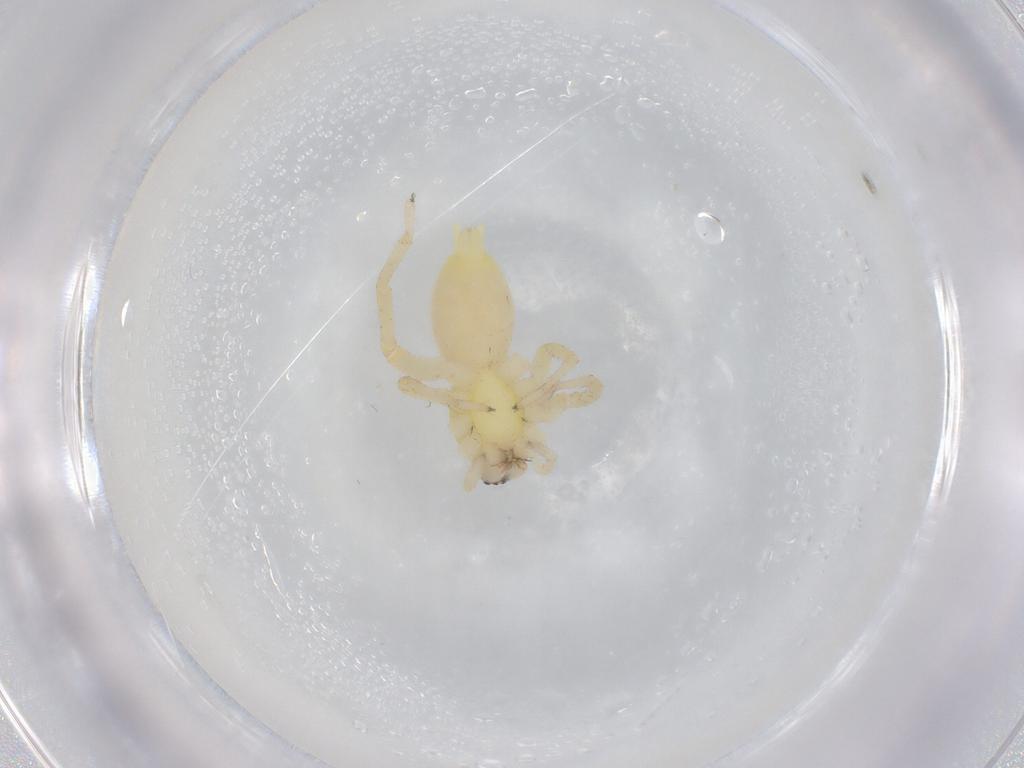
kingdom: Animalia
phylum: Arthropoda
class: Arachnida
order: Araneae
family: Anyphaenidae
